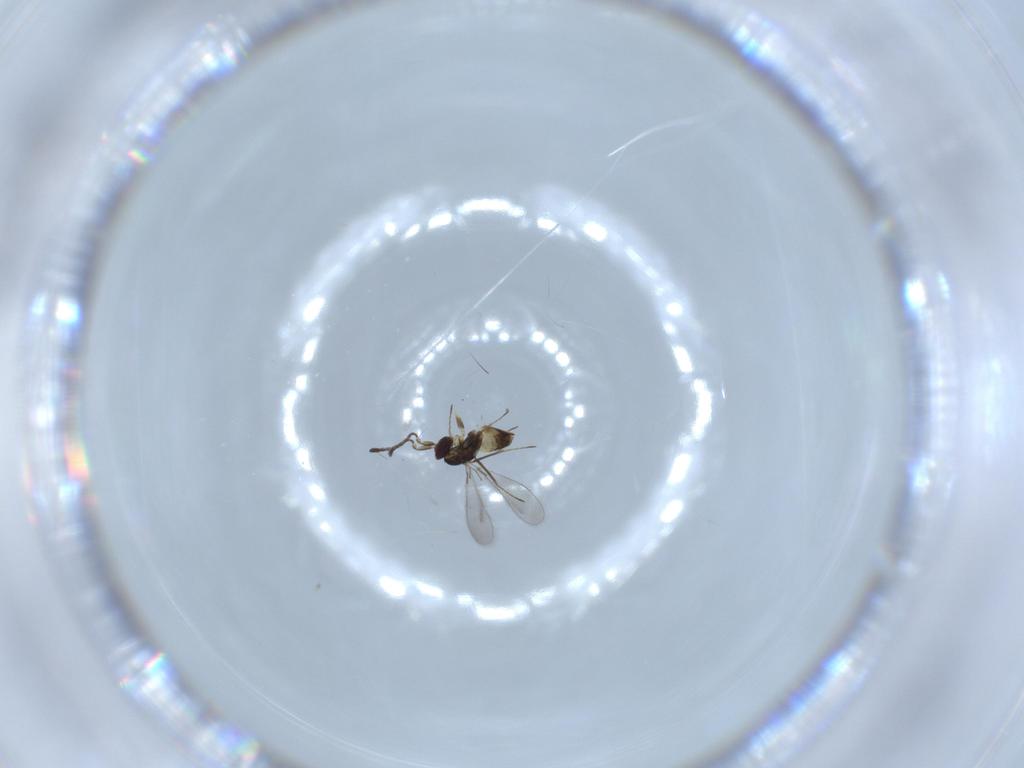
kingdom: Animalia
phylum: Arthropoda
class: Insecta
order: Hymenoptera
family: Mymaridae
